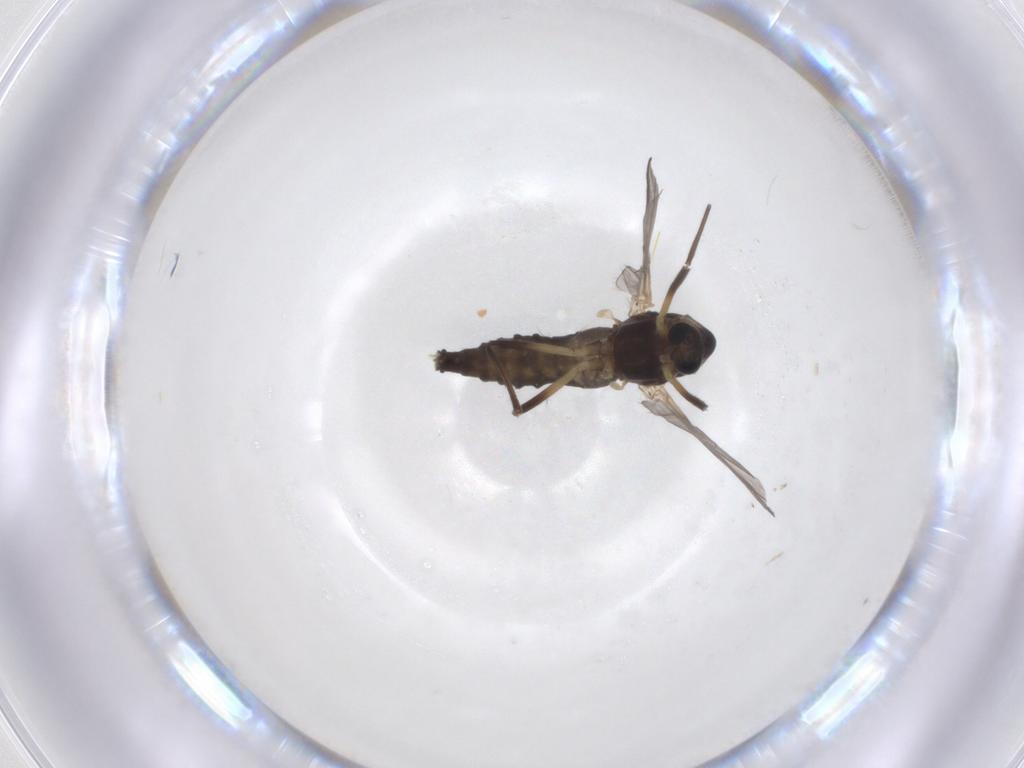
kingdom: Animalia
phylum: Arthropoda
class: Insecta
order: Diptera
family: Chironomidae
